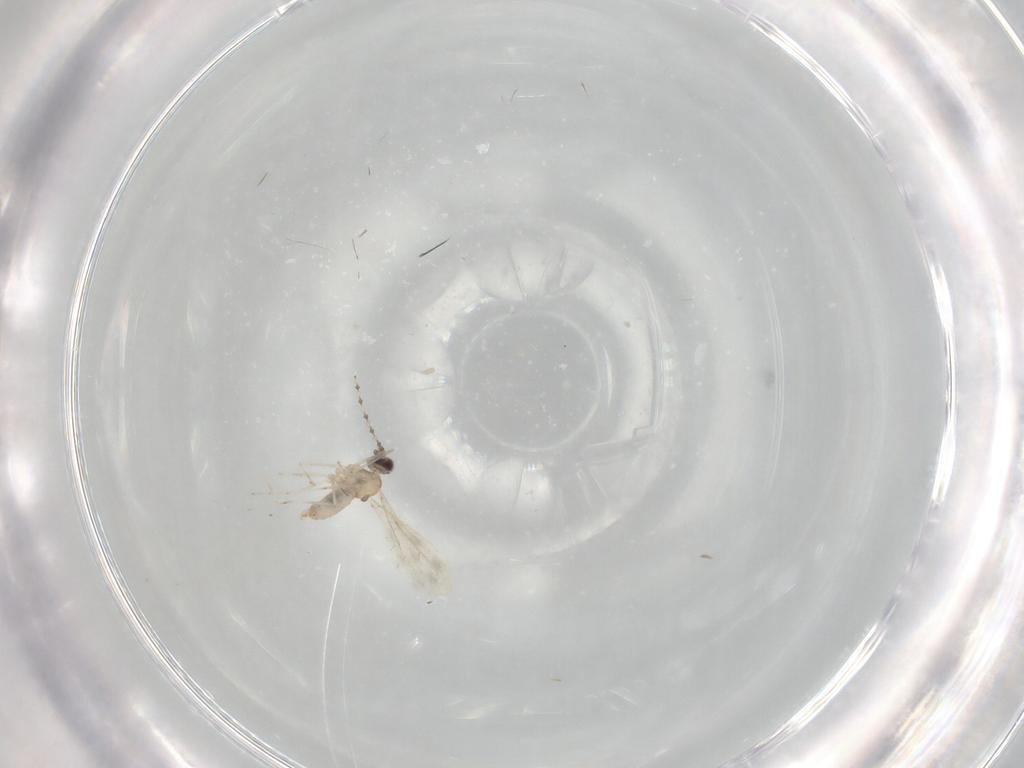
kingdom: Animalia
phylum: Arthropoda
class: Insecta
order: Diptera
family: Cecidomyiidae
